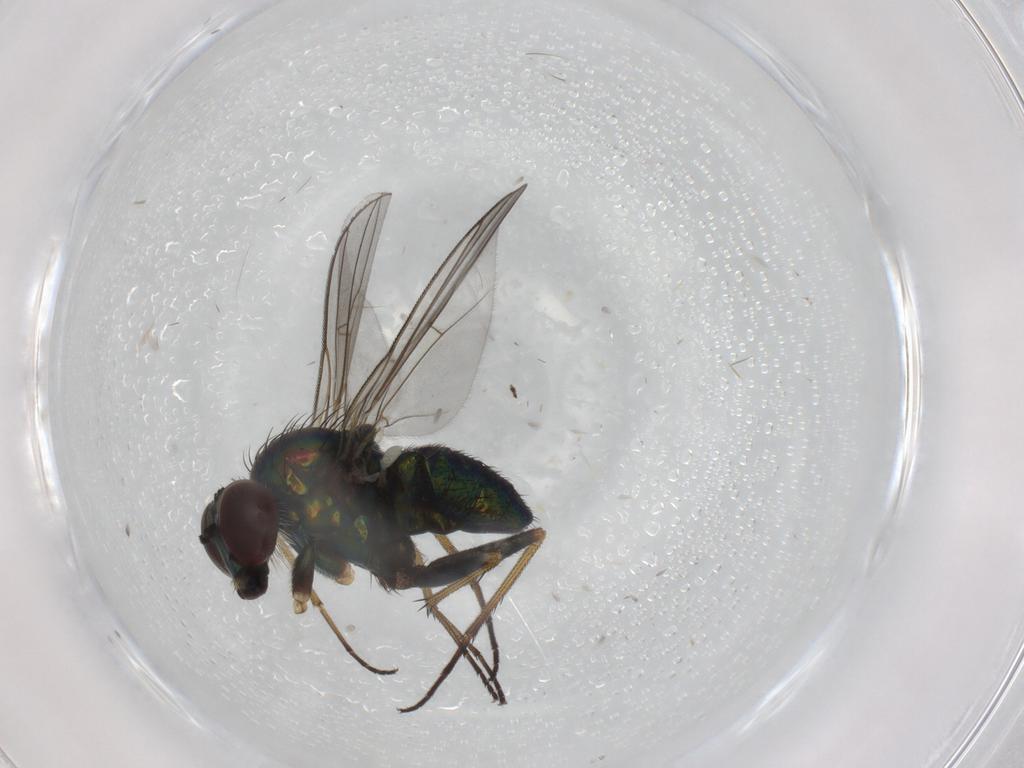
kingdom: Animalia
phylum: Arthropoda
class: Insecta
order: Diptera
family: Dolichopodidae
